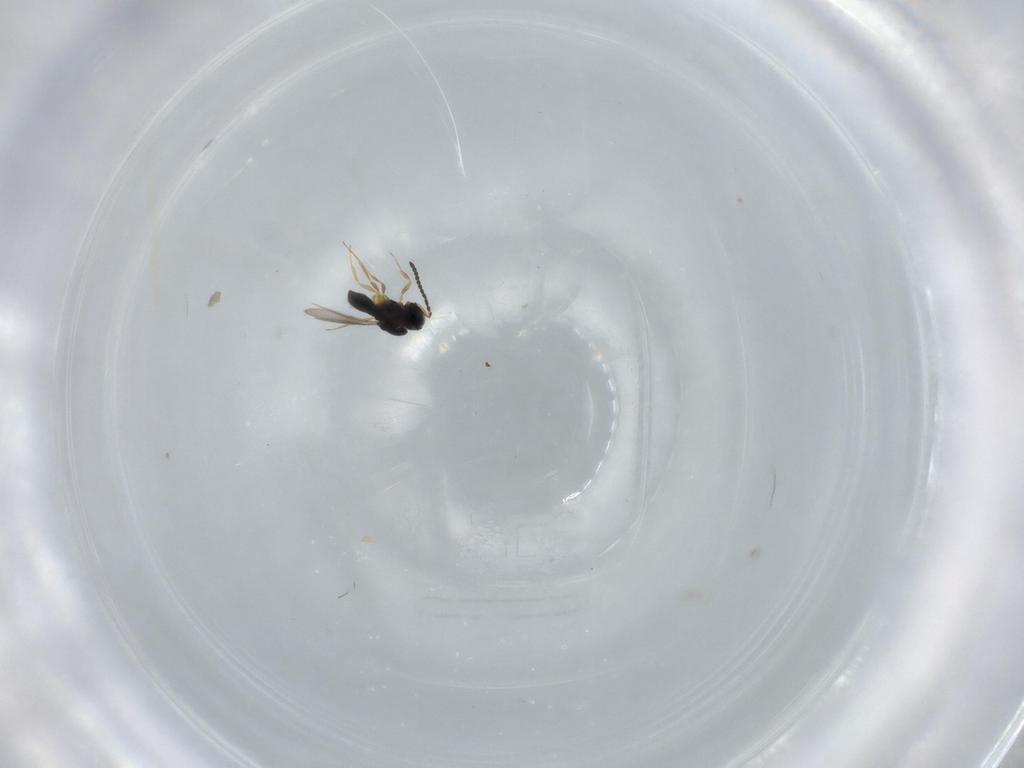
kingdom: Animalia
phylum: Arthropoda
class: Insecta
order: Hymenoptera
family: Scelionidae
